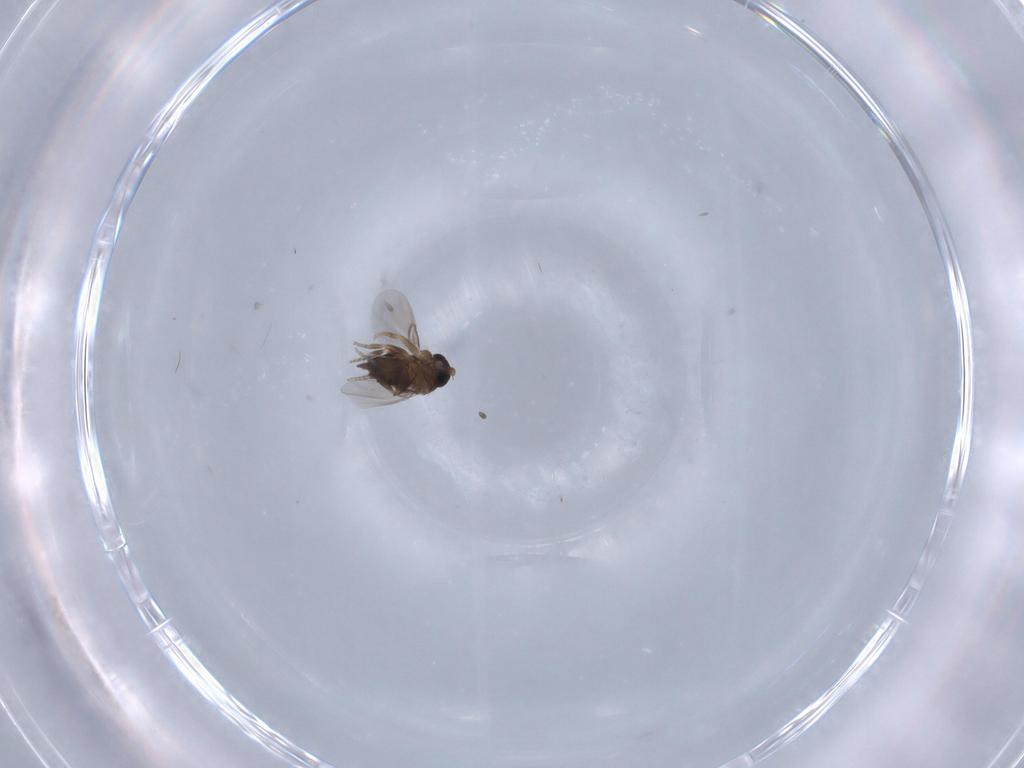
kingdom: Animalia
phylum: Arthropoda
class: Insecta
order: Diptera
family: Phoridae
